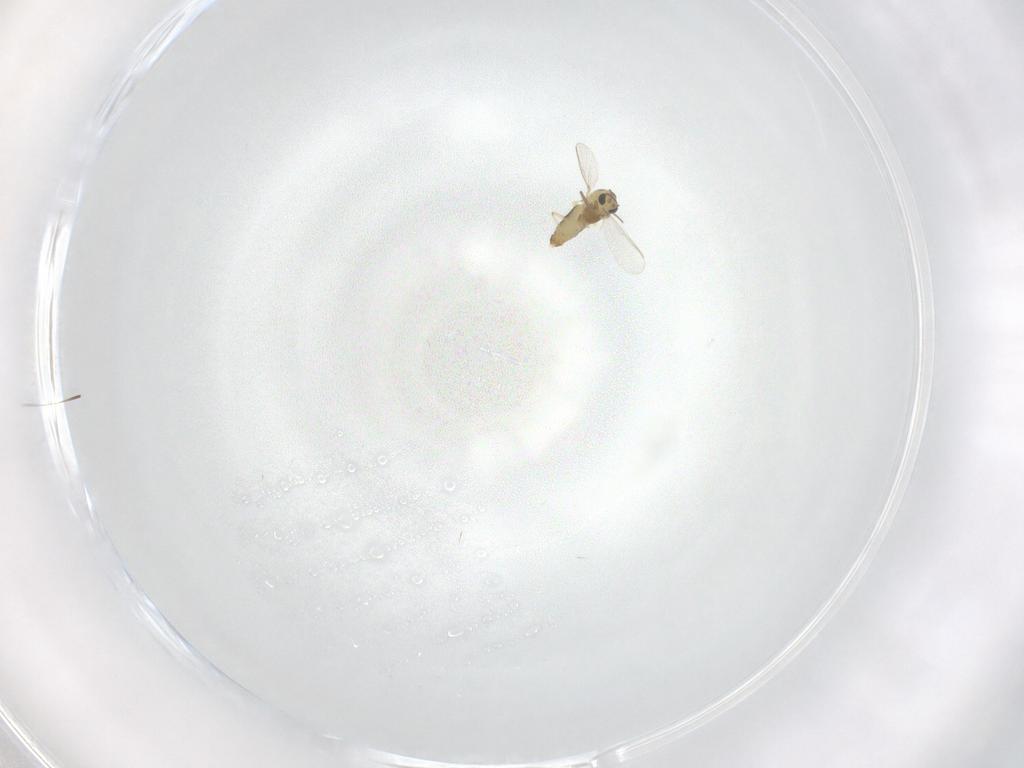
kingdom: Animalia
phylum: Arthropoda
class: Insecta
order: Diptera
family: Chironomidae
